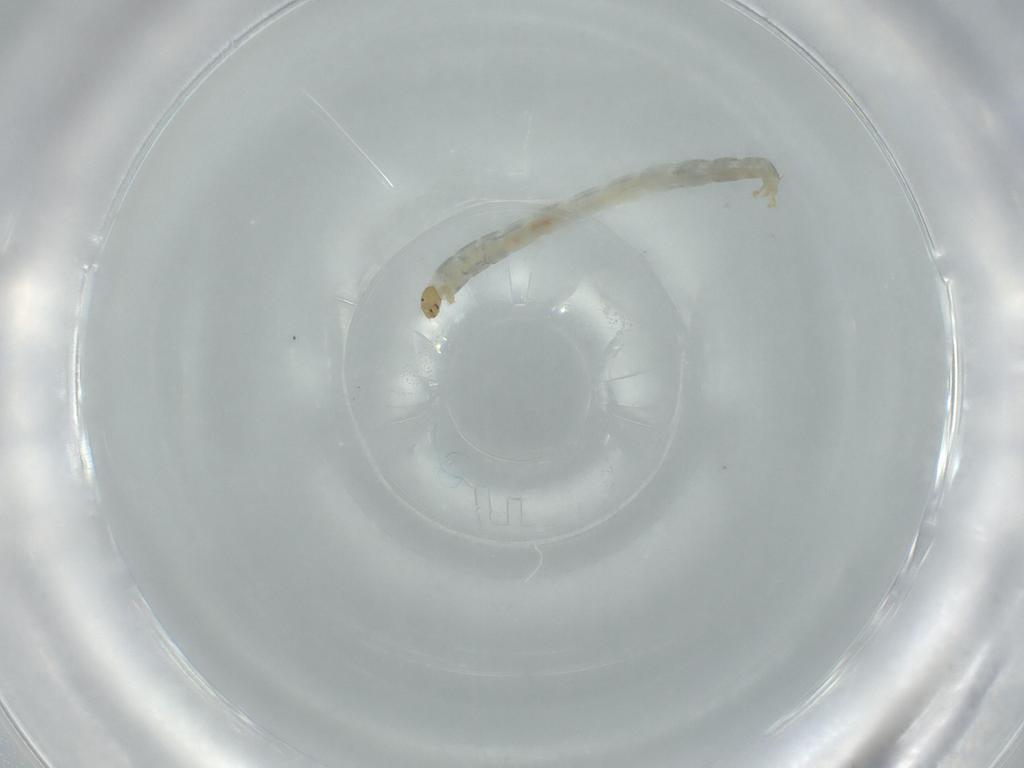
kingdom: Animalia
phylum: Arthropoda
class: Insecta
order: Diptera
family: Chironomidae
